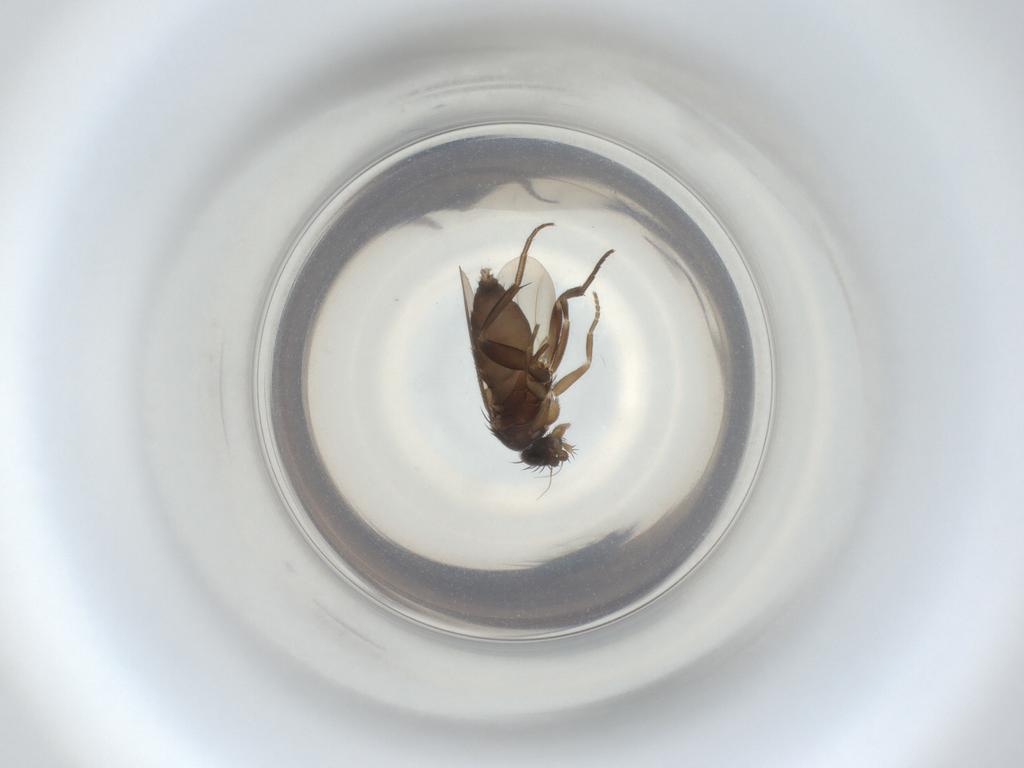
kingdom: Animalia
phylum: Arthropoda
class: Insecta
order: Diptera
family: Phoridae
